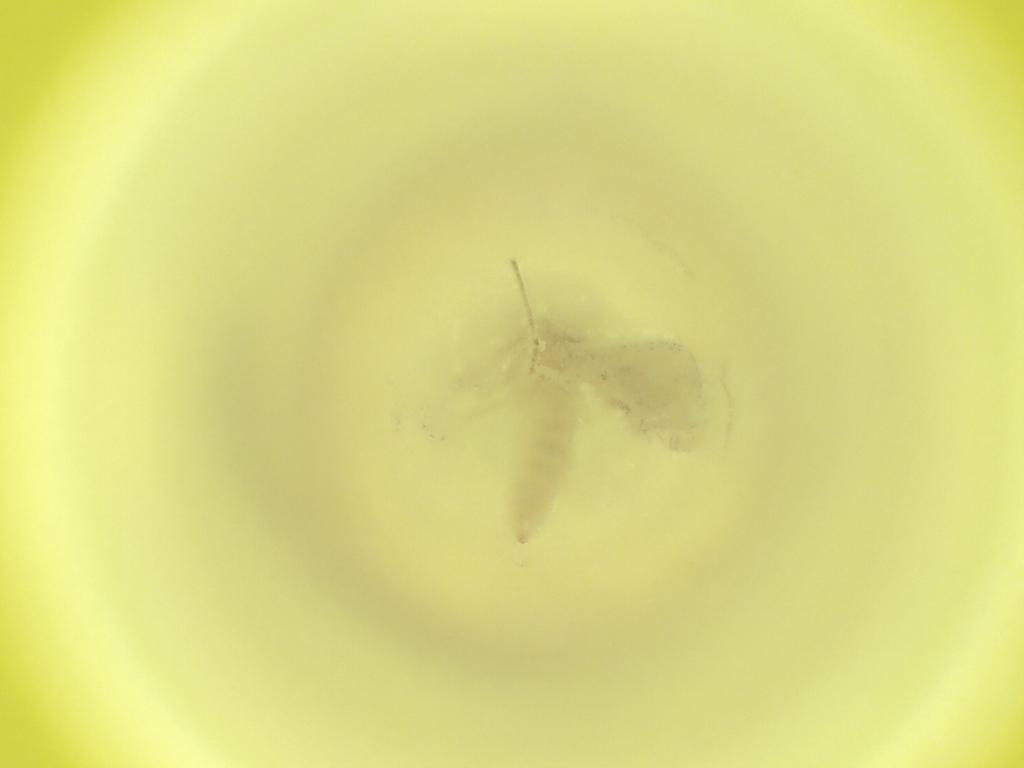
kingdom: Animalia
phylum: Arthropoda
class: Insecta
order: Diptera
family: Cecidomyiidae
